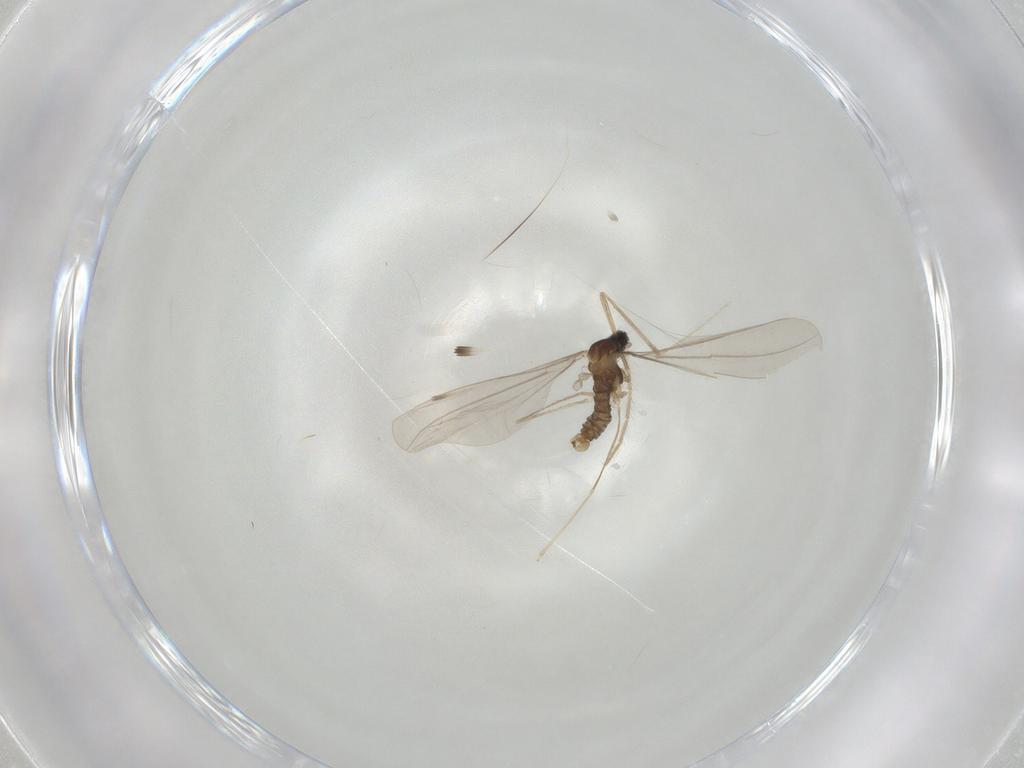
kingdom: Animalia
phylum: Arthropoda
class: Insecta
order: Diptera
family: Cecidomyiidae
